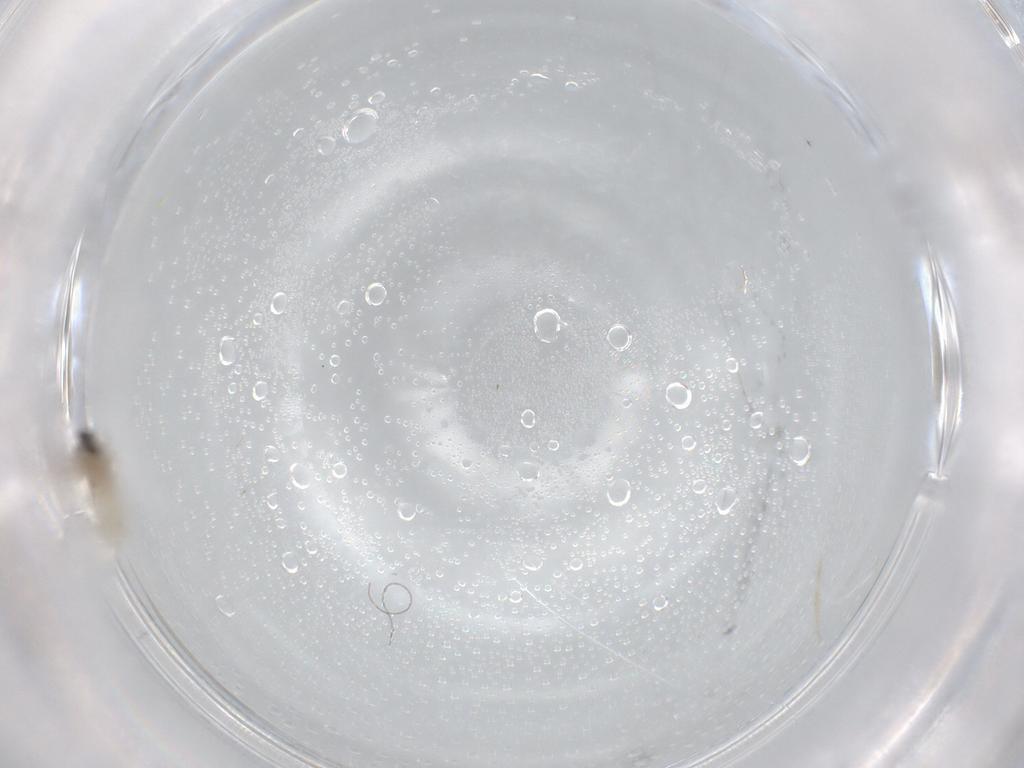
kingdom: Animalia
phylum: Arthropoda
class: Insecta
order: Diptera
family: Cecidomyiidae
